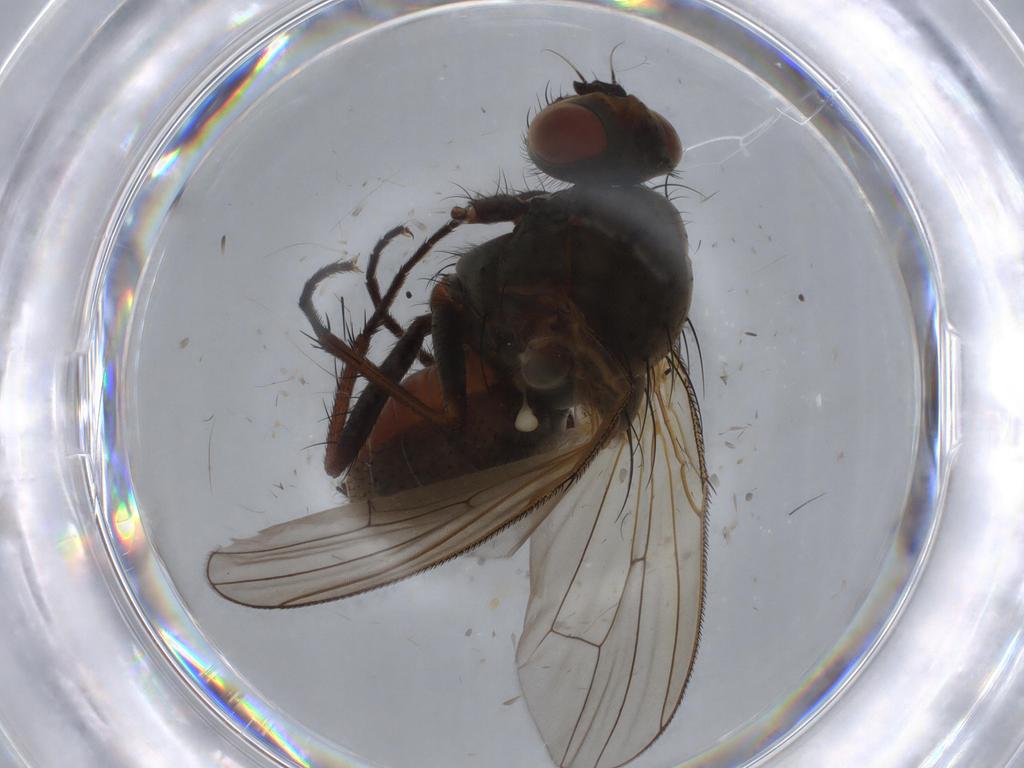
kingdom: Animalia
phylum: Arthropoda
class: Insecta
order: Diptera
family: Anthomyiidae
